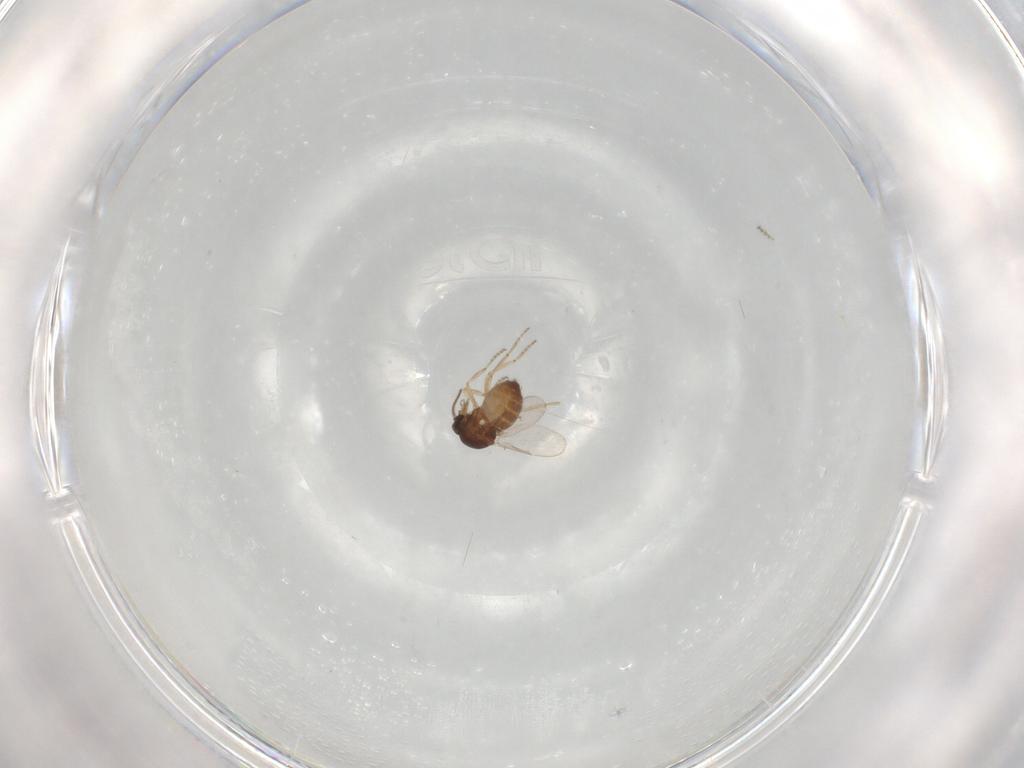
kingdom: Animalia
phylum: Arthropoda
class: Insecta
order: Diptera
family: Ceratopogonidae
